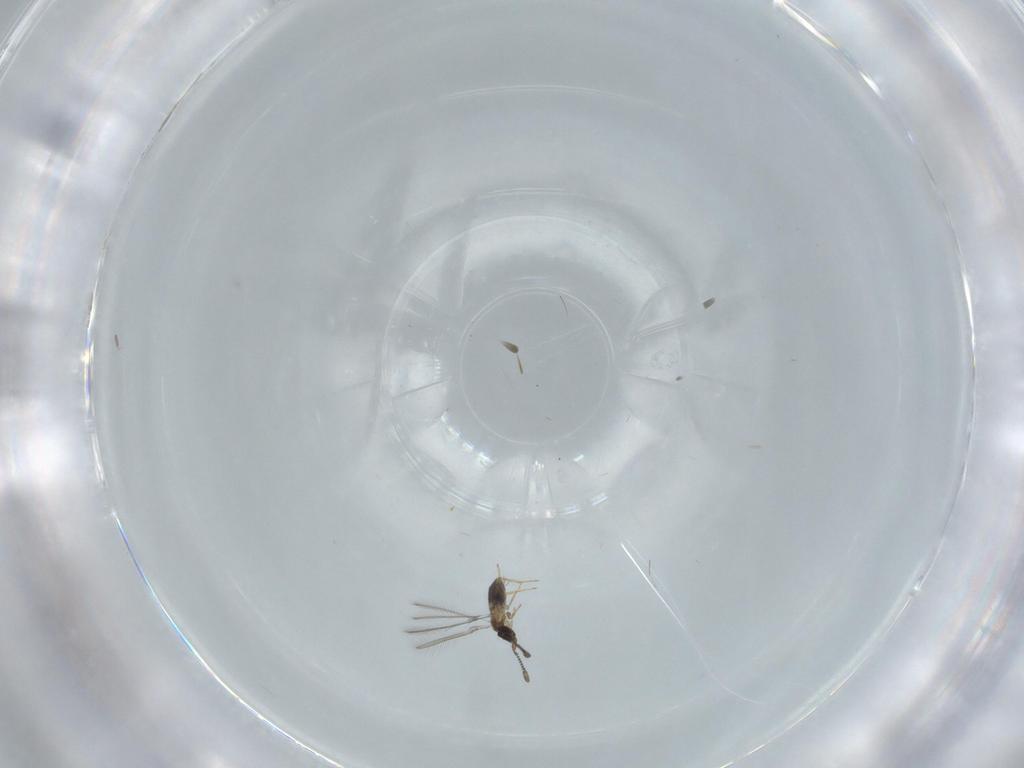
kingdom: Animalia
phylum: Arthropoda
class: Insecta
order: Hymenoptera
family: Mymaridae
